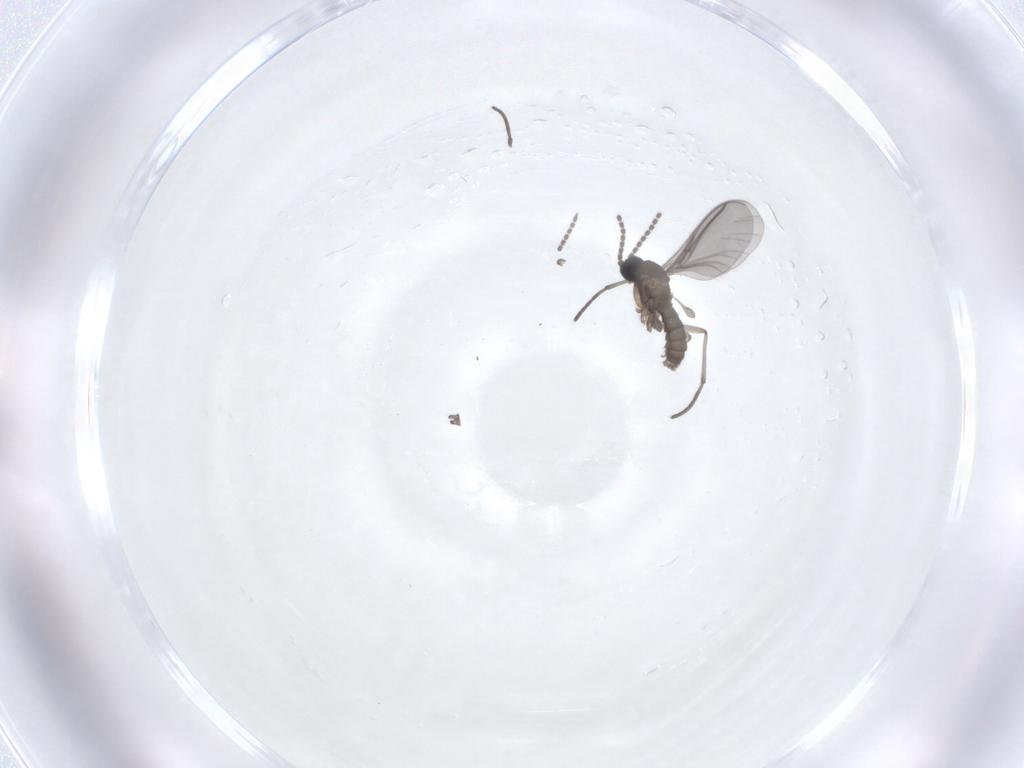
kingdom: Animalia
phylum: Arthropoda
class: Insecta
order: Diptera
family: Sciaridae
